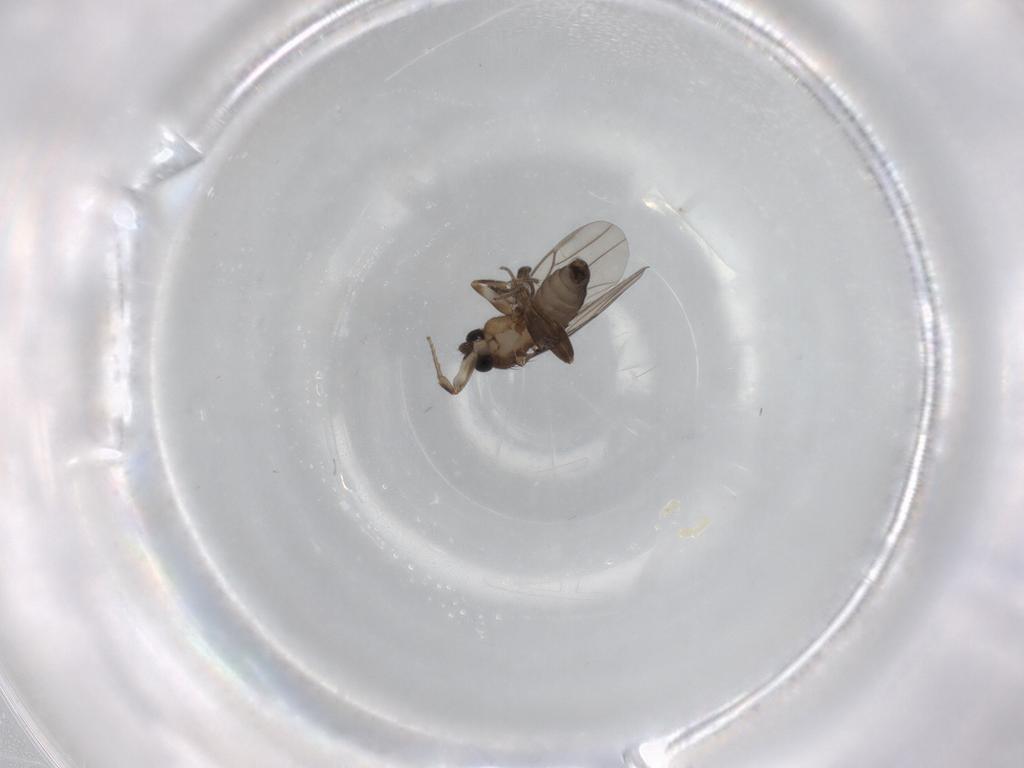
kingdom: Animalia
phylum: Arthropoda
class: Insecta
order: Diptera
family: Phoridae
